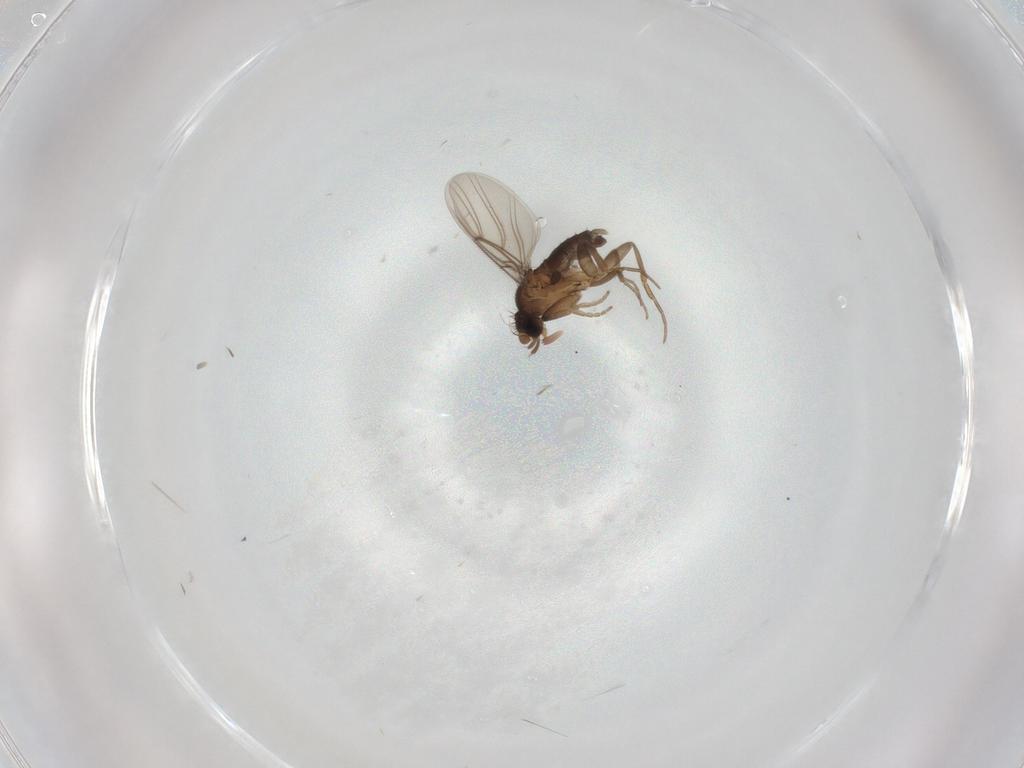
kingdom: Animalia
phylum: Arthropoda
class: Insecta
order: Diptera
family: Phoridae
